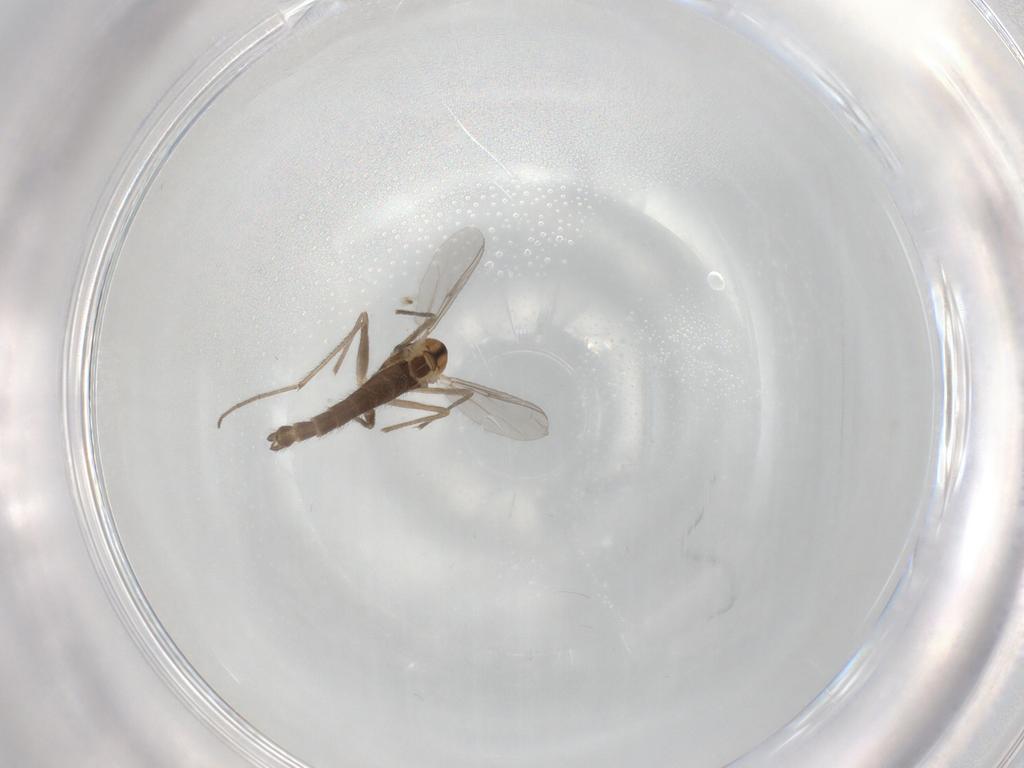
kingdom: Animalia
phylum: Arthropoda
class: Insecta
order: Diptera
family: Chironomidae
